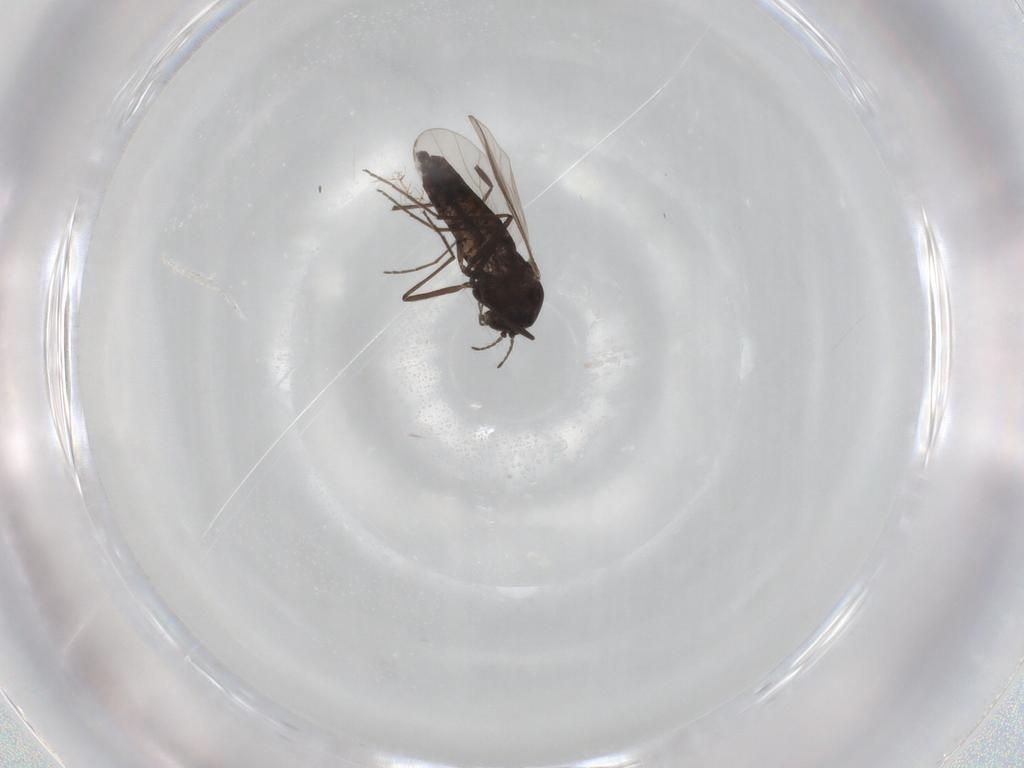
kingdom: Animalia
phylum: Arthropoda
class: Insecta
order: Diptera
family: Chironomidae
